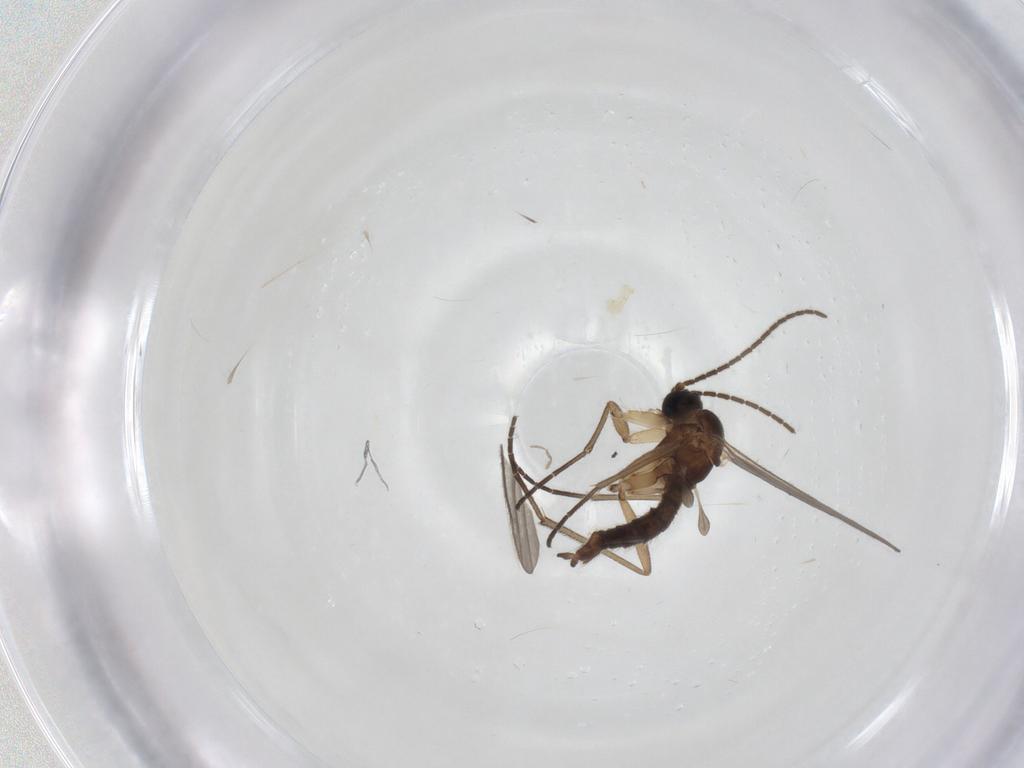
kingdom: Animalia
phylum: Arthropoda
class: Insecta
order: Diptera
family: Sciaridae
